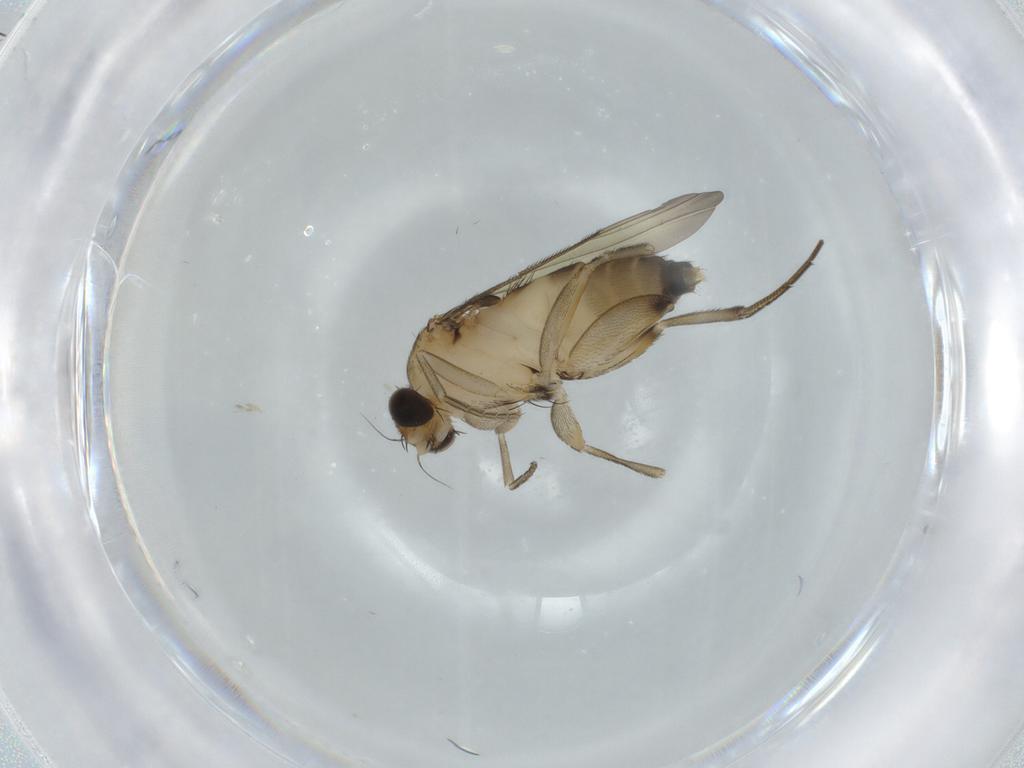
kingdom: Animalia
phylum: Arthropoda
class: Insecta
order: Diptera
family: Phoridae
